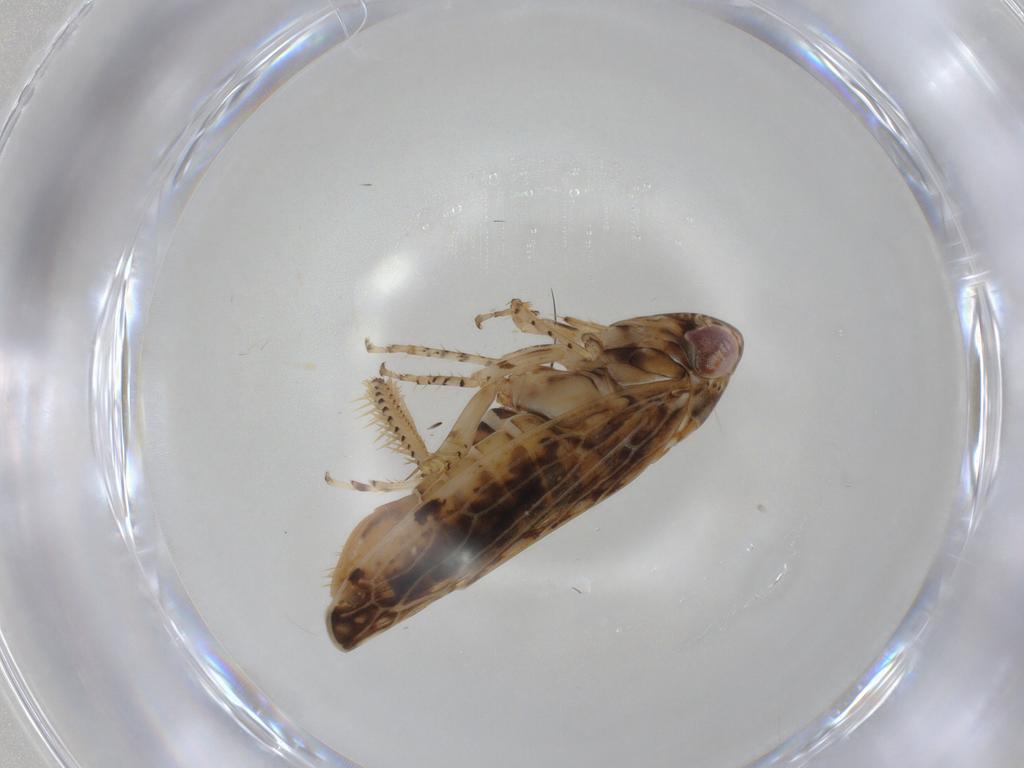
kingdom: Animalia
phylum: Arthropoda
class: Insecta
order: Hemiptera
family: Cicadellidae
